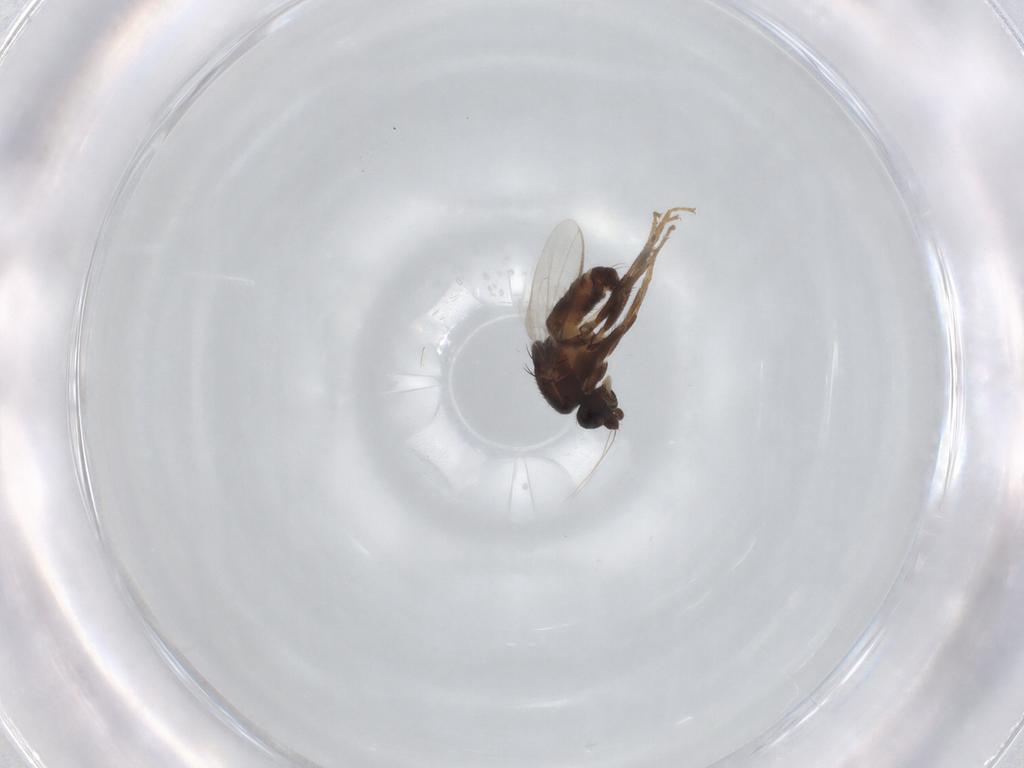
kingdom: Animalia
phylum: Arthropoda
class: Insecta
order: Diptera
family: Sphaeroceridae
